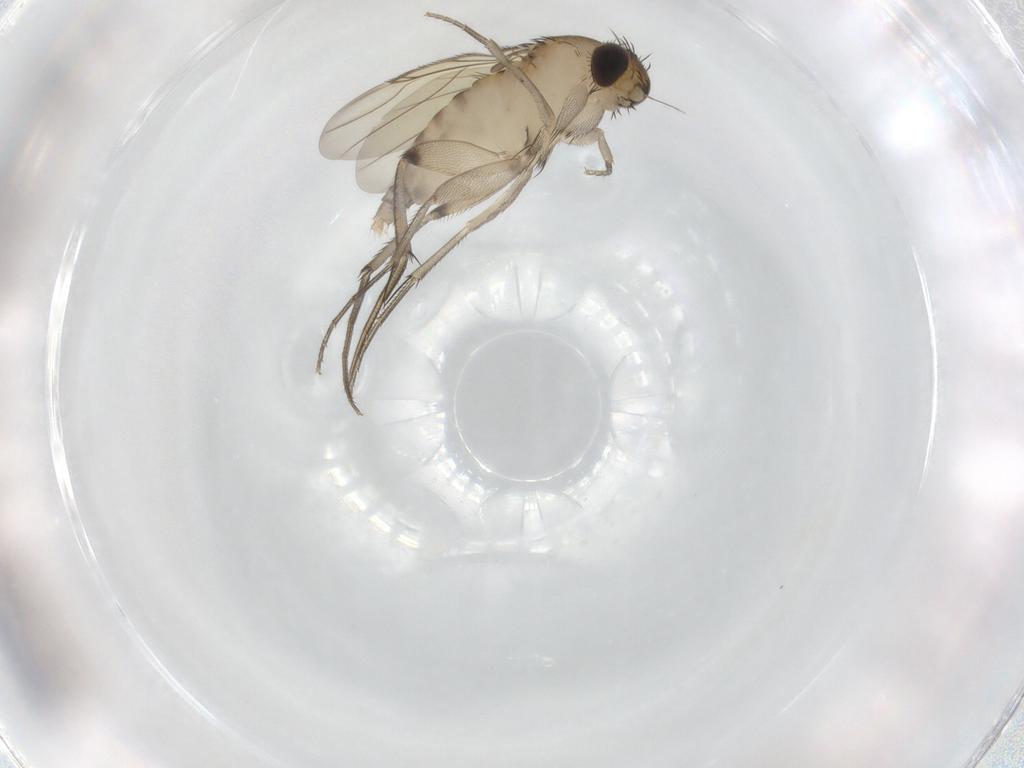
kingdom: Animalia
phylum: Arthropoda
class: Insecta
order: Diptera
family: Phoridae
